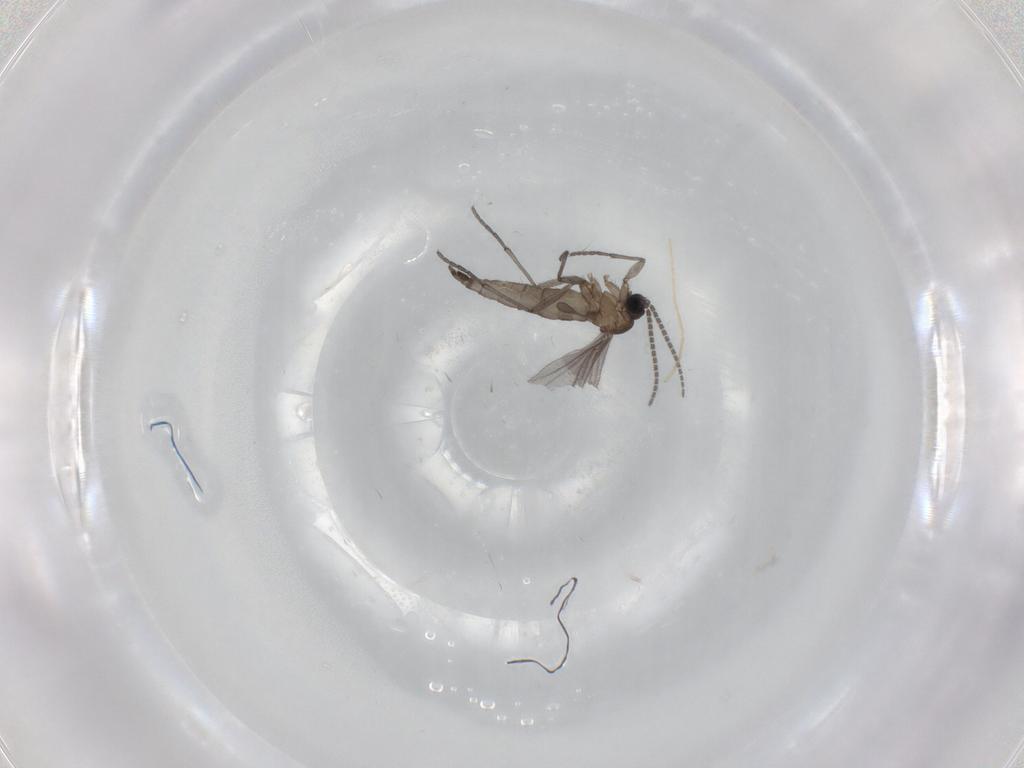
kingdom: Animalia
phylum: Arthropoda
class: Insecta
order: Diptera
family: Sciaridae
